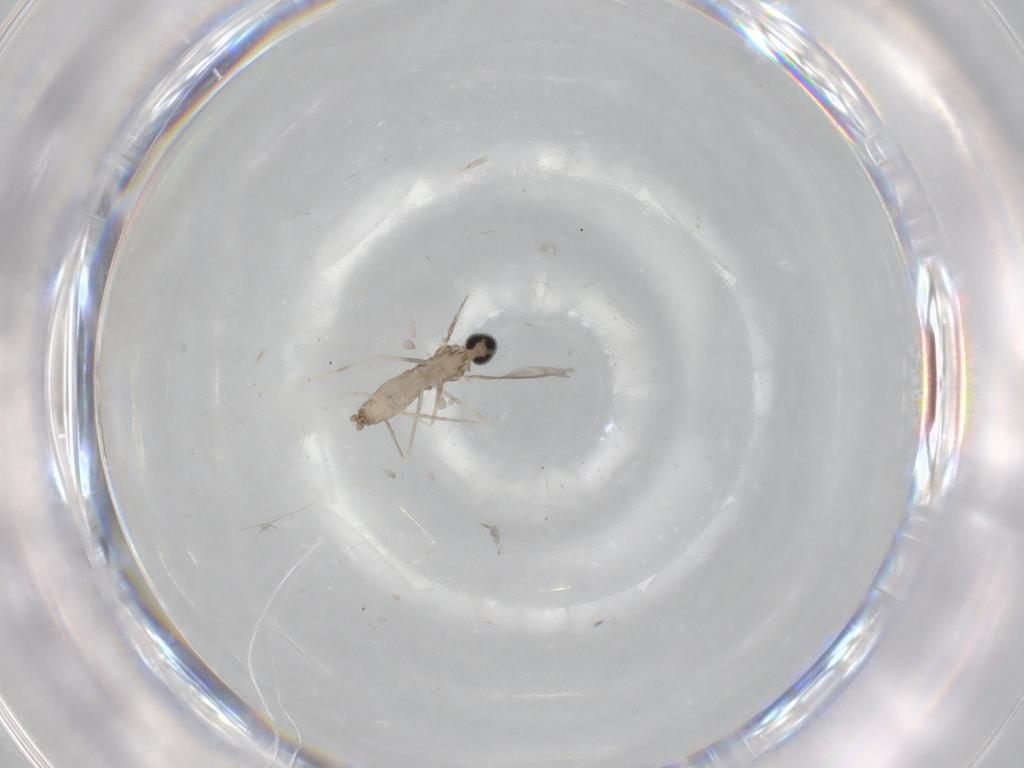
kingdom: Animalia
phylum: Arthropoda
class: Insecta
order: Diptera
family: Cecidomyiidae
